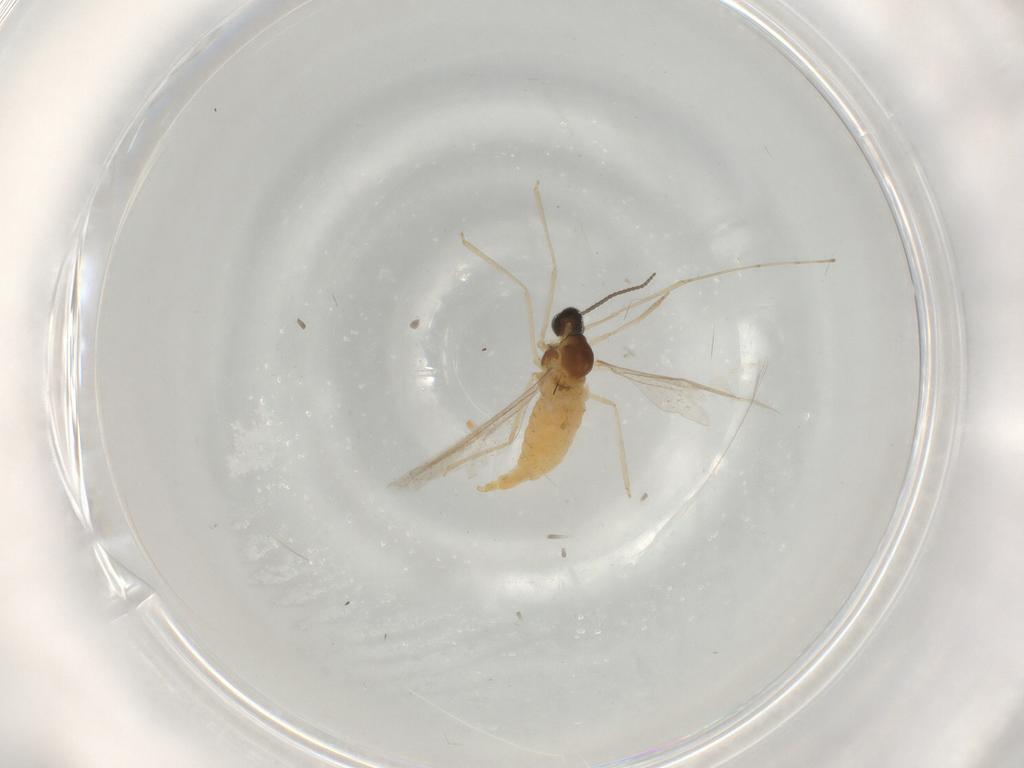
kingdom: Animalia
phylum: Arthropoda
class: Insecta
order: Diptera
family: Cecidomyiidae
